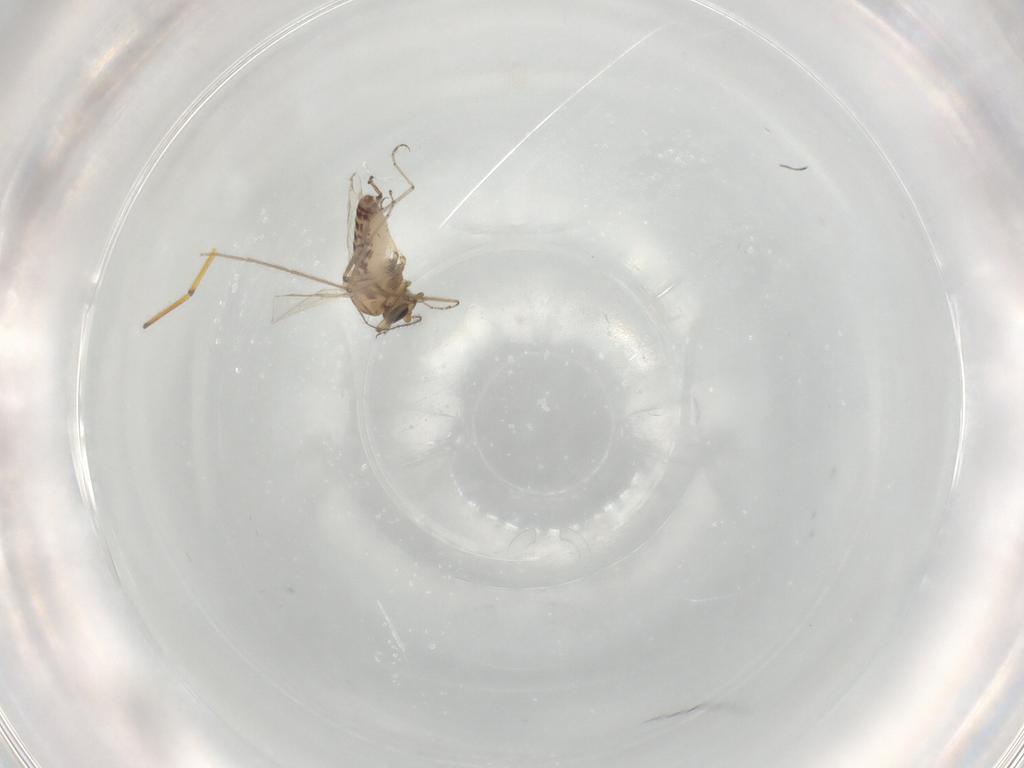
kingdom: Animalia
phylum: Arthropoda
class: Insecta
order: Diptera
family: Ceratopogonidae
